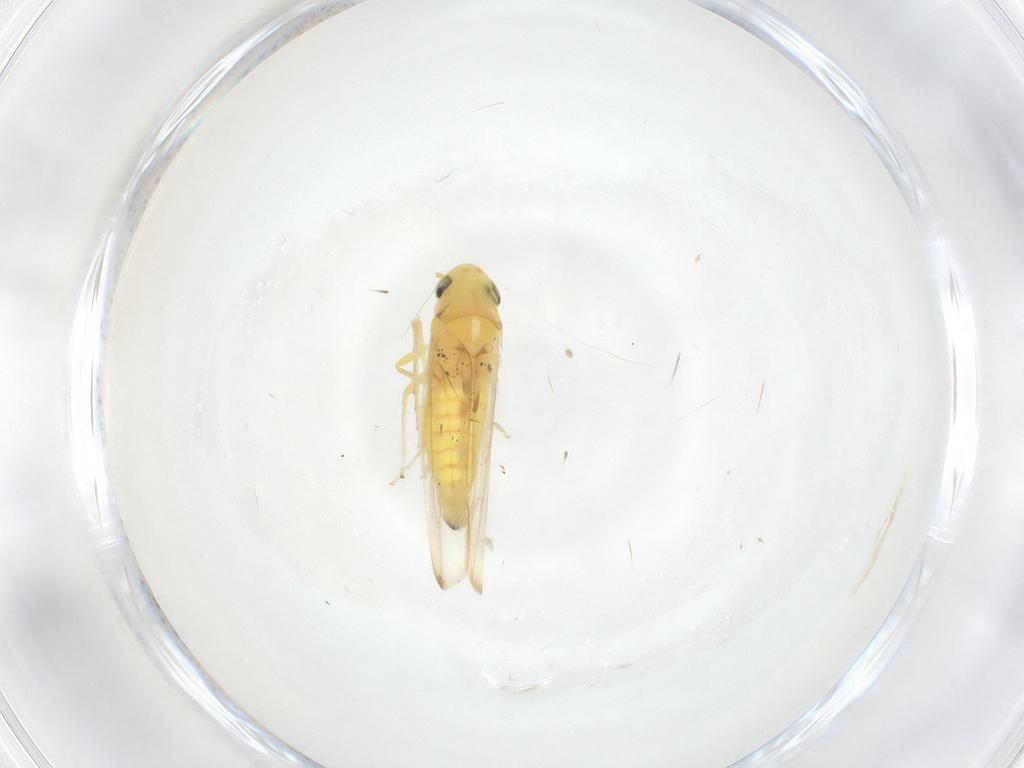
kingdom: Animalia
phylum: Arthropoda
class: Insecta
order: Hemiptera
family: Cicadellidae
